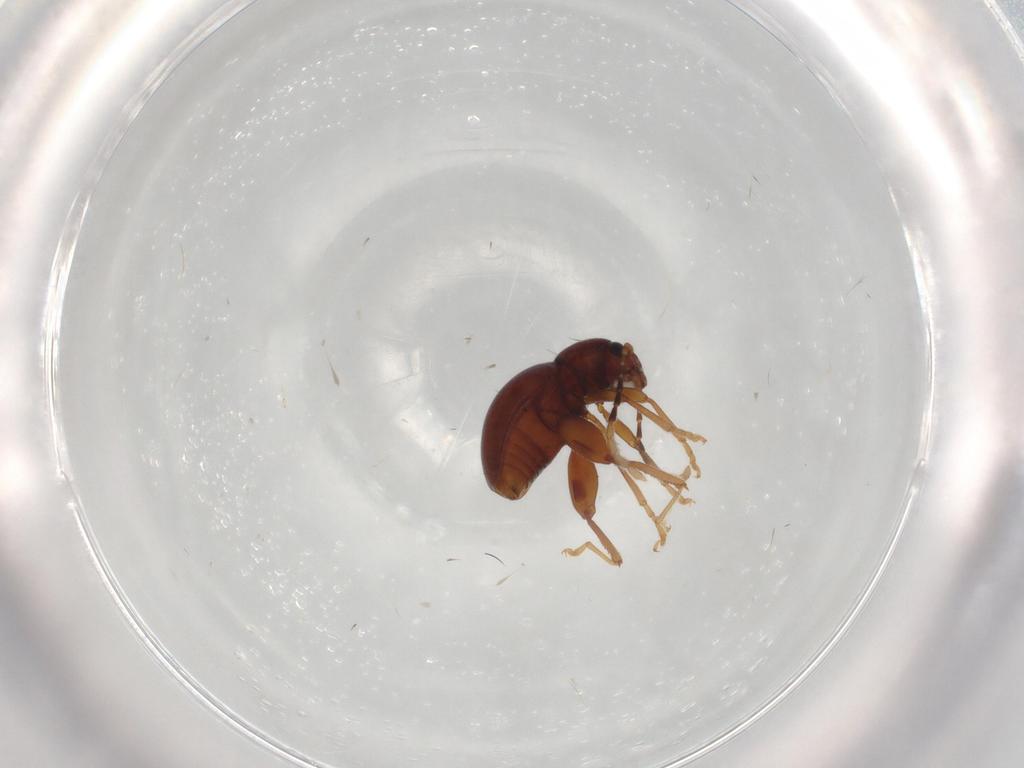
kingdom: Animalia
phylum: Arthropoda
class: Insecta
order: Coleoptera
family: Chrysomelidae
